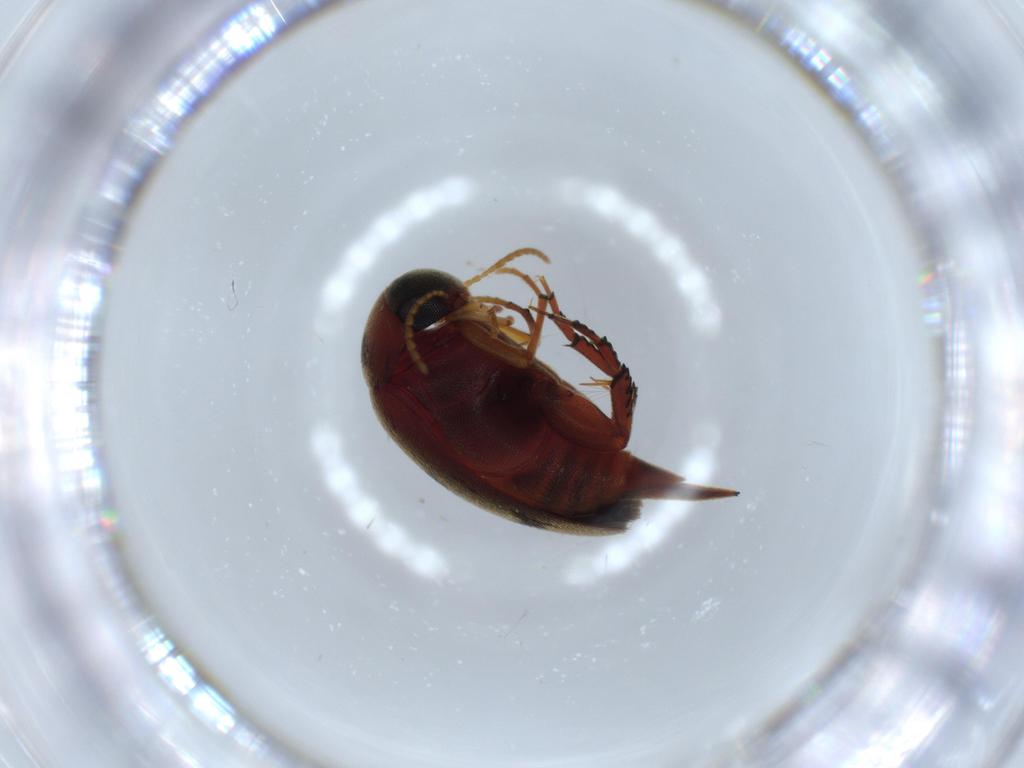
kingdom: Animalia
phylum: Arthropoda
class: Insecta
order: Coleoptera
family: Mordellidae
